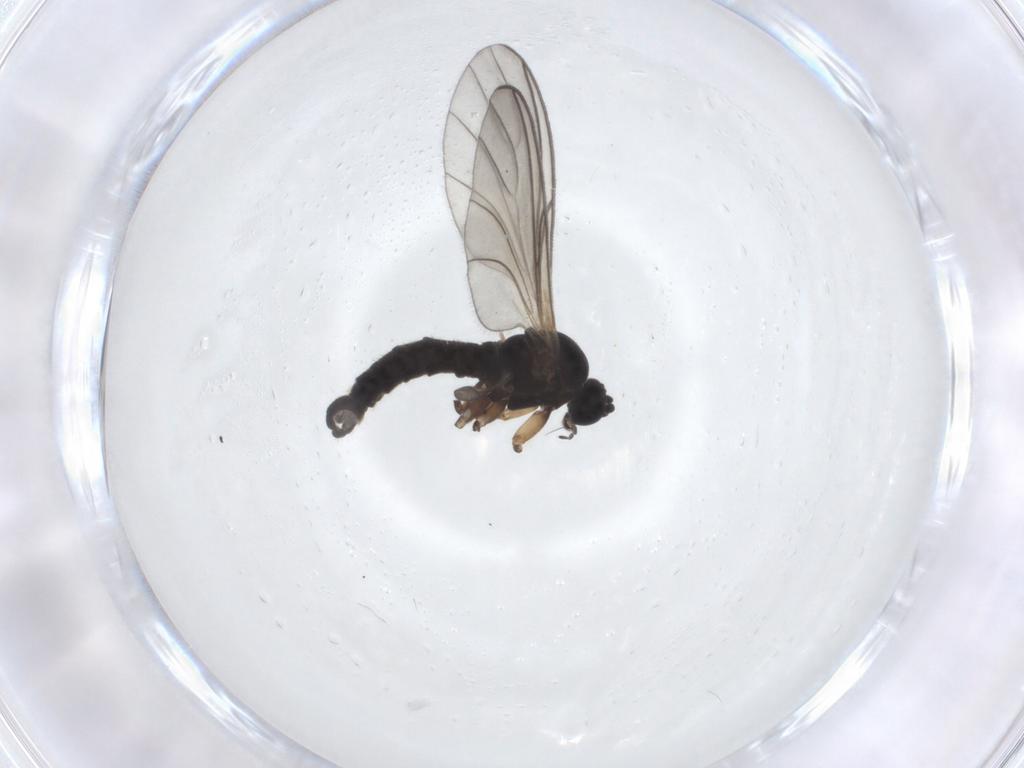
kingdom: Animalia
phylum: Arthropoda
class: Insecta
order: Diptera
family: Sciaridae
